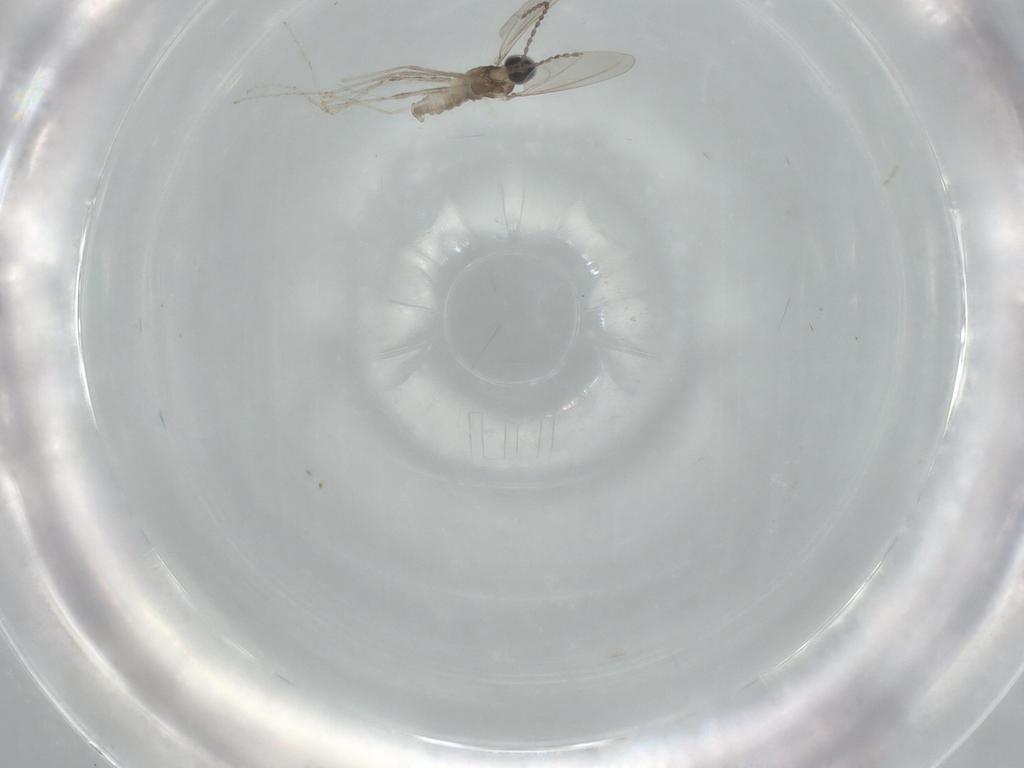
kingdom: Animalia
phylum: Arthropoda
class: Insecta
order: Diptera
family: Cecidomyiidae
